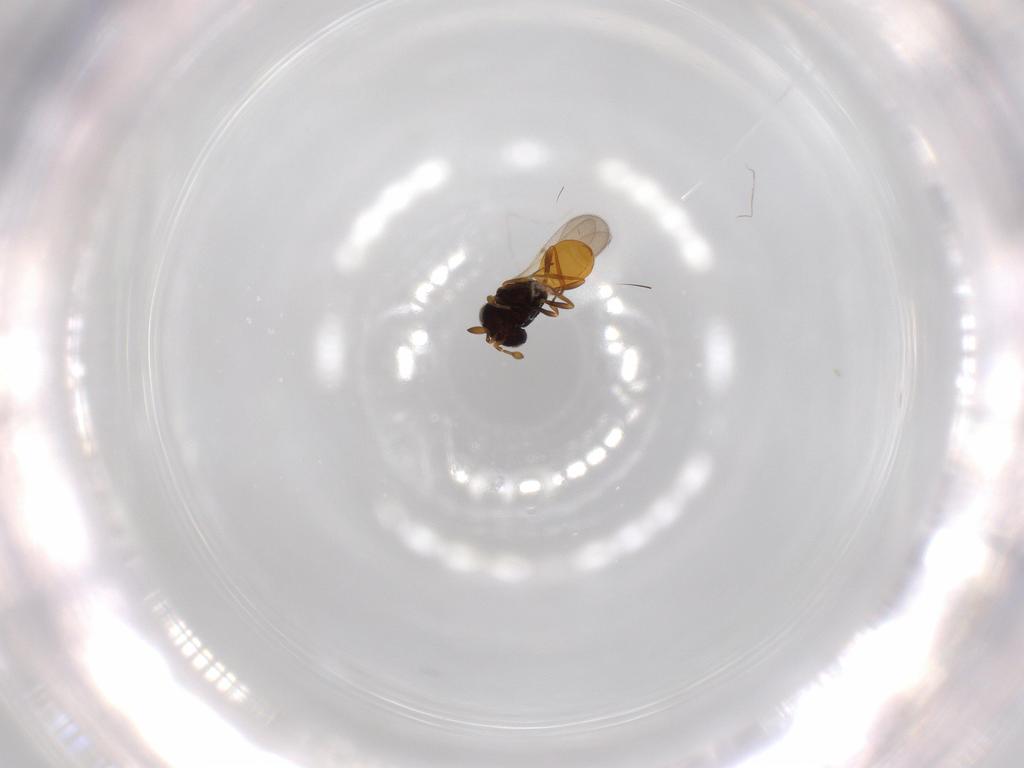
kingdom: Animalia
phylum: Arthropoda
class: Insecta
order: Hymenoptera
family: Scelionidae
